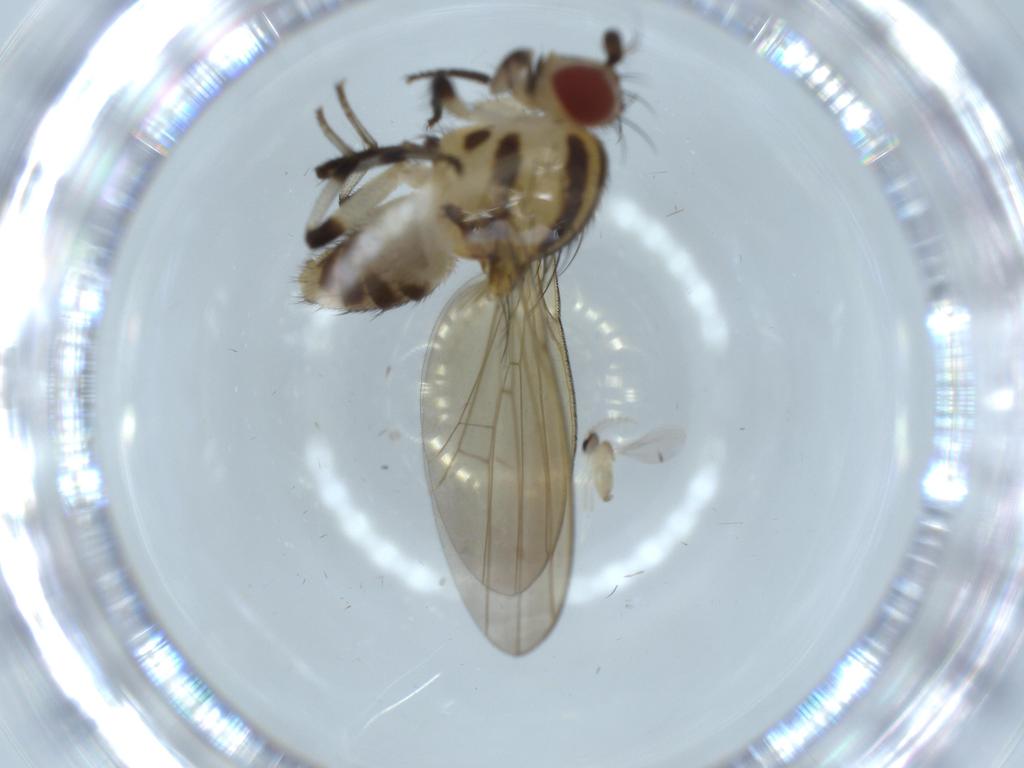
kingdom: Animalia
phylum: Arthropoda
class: Insecta
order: Diptera
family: Lauxaniidae
